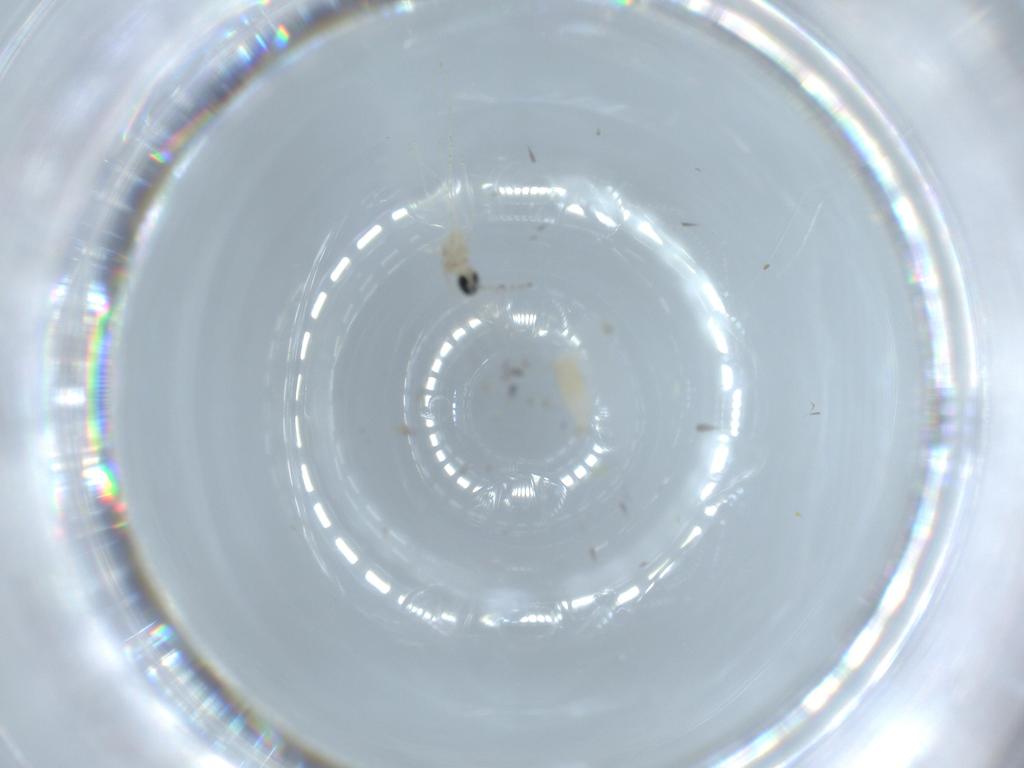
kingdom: Animalia
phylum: Arthropoda
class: Insecta
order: Diptera
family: Cecidomyiidae
